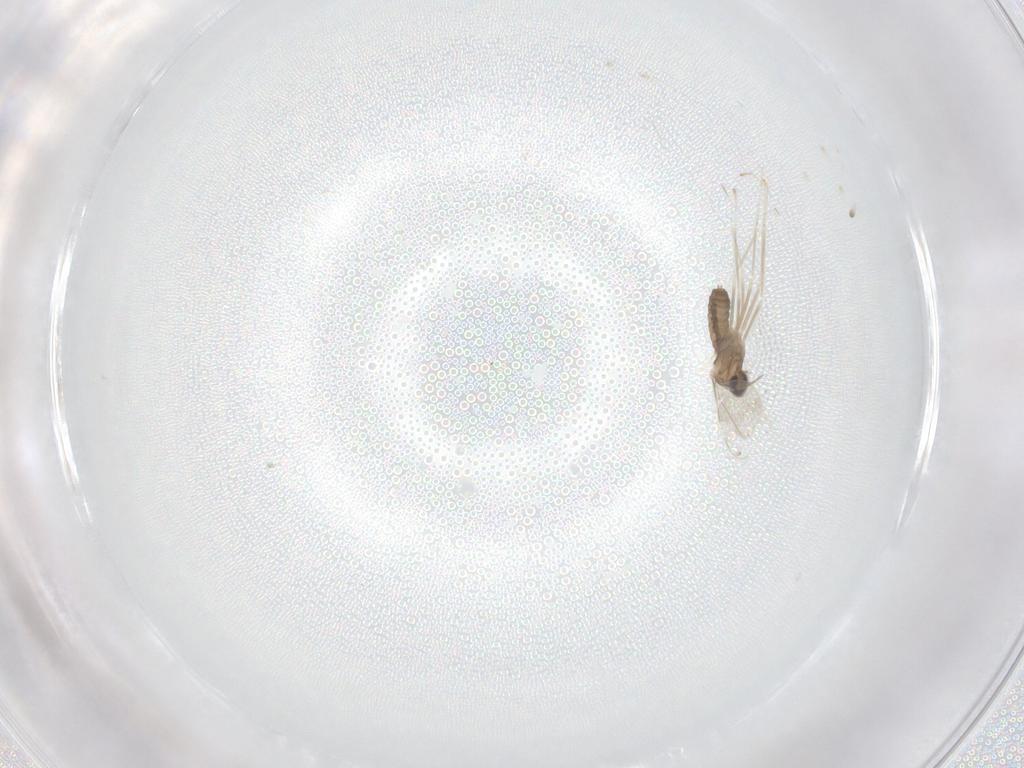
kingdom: Animalia
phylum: Arthropoda
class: Insecta
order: Diptera
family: Cecidomyiidae
